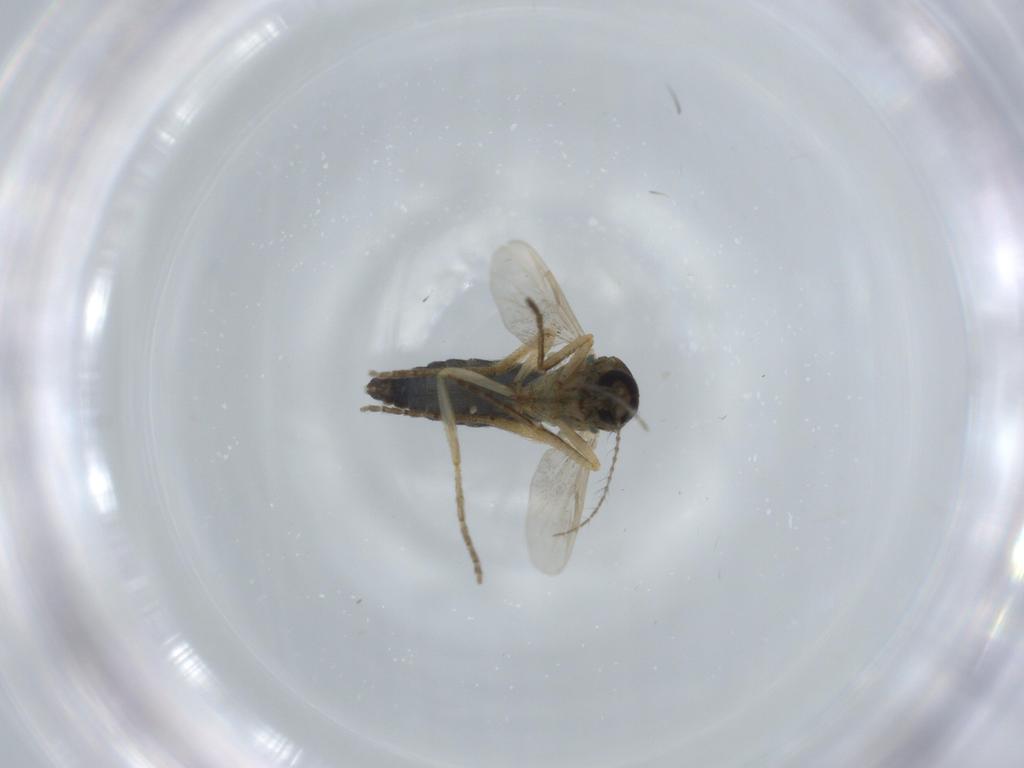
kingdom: Animalia
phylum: Arthropoda
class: Insecta
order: Diptera
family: Ceratopogonidae
